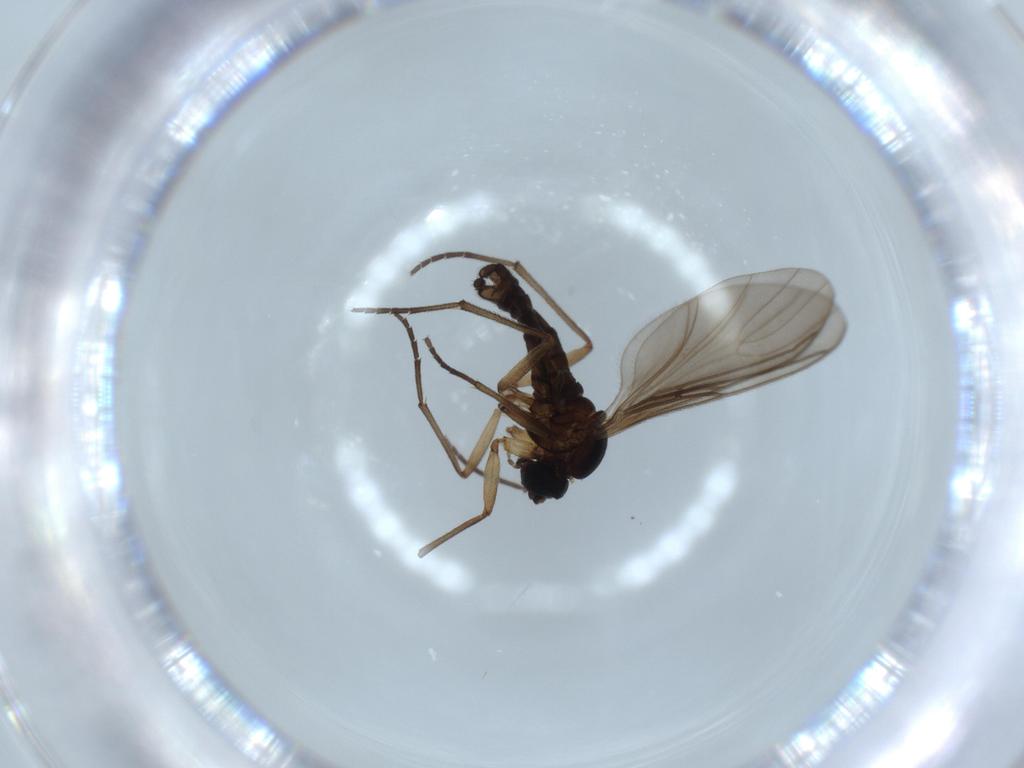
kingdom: Animalia
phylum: Arthropoda
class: Insecta
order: Diptera
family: Sciaridae
